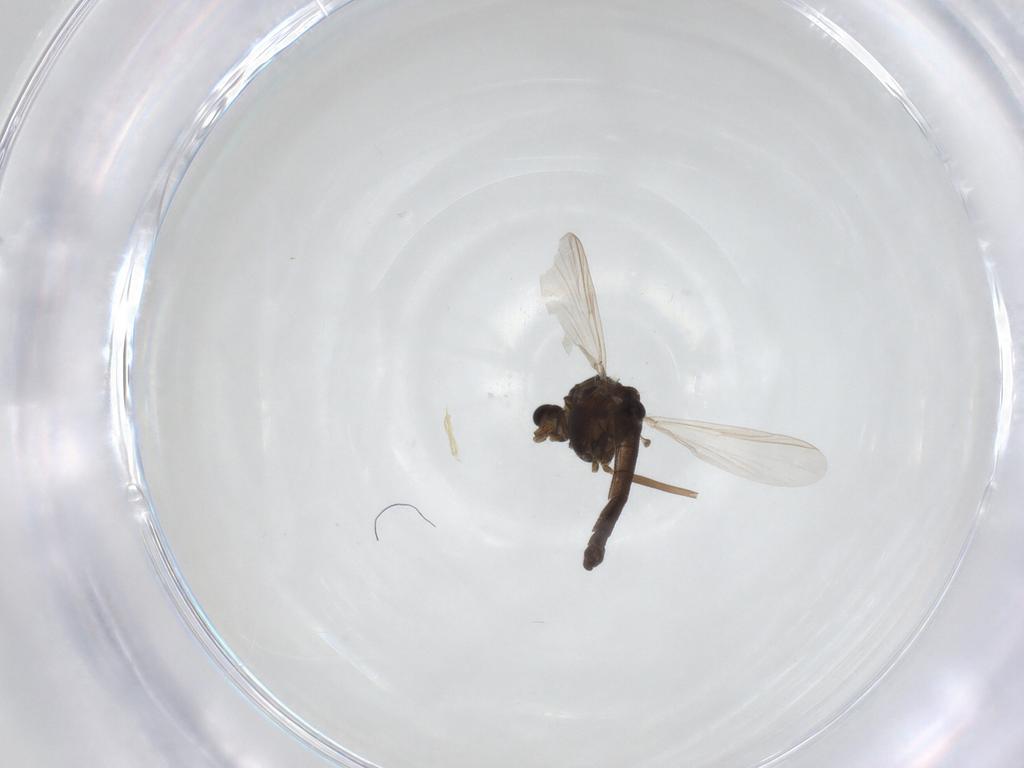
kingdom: Animalia
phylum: Arthropoda
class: Insecta
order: Diptera
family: Chironomidae
